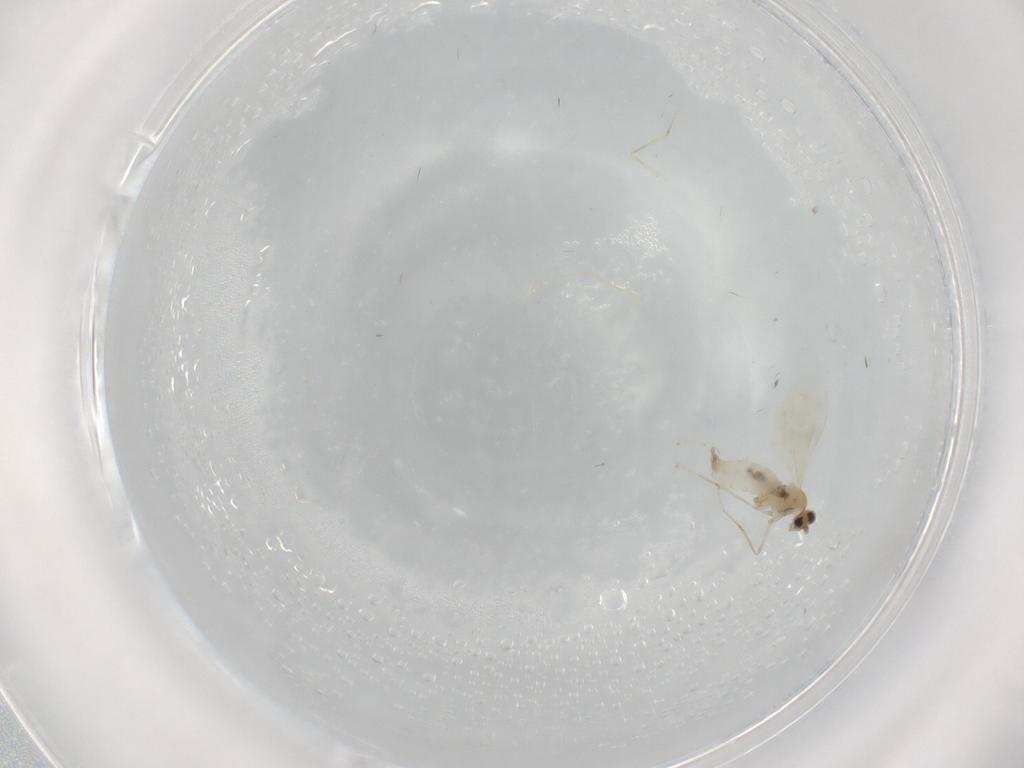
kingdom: Animalia
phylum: Arthropoda
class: Insecta
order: Diptera
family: Cecidomyiidae
